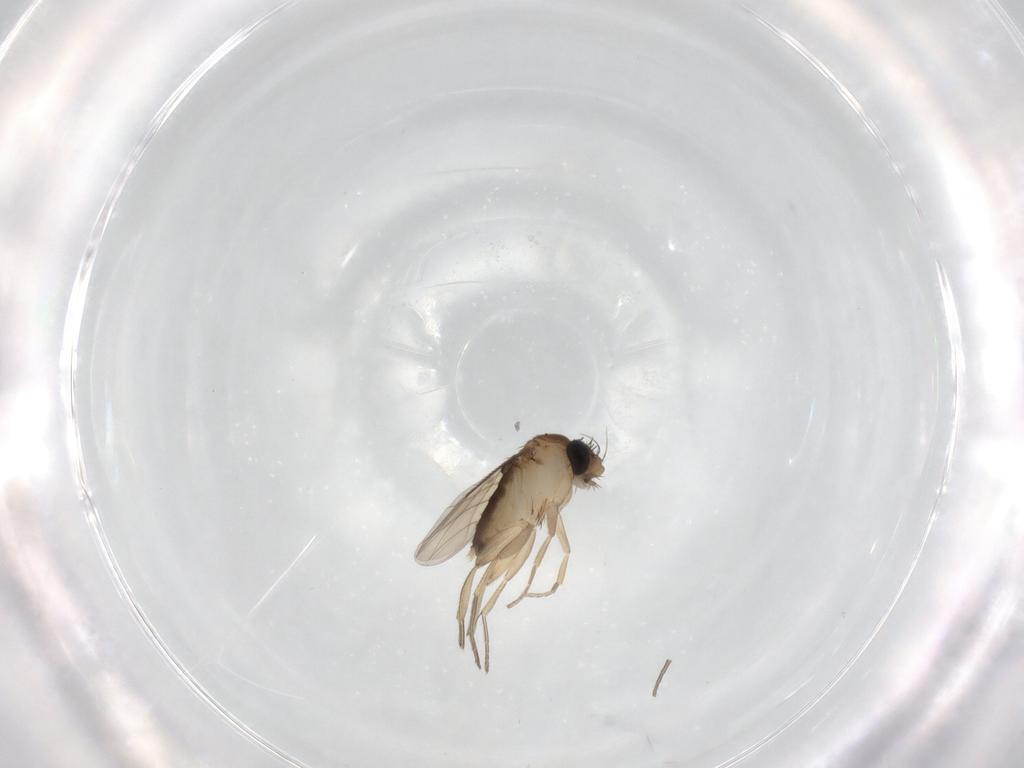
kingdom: Animalia
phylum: Arthropoda
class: Insecta
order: Diptera
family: Phoridae
